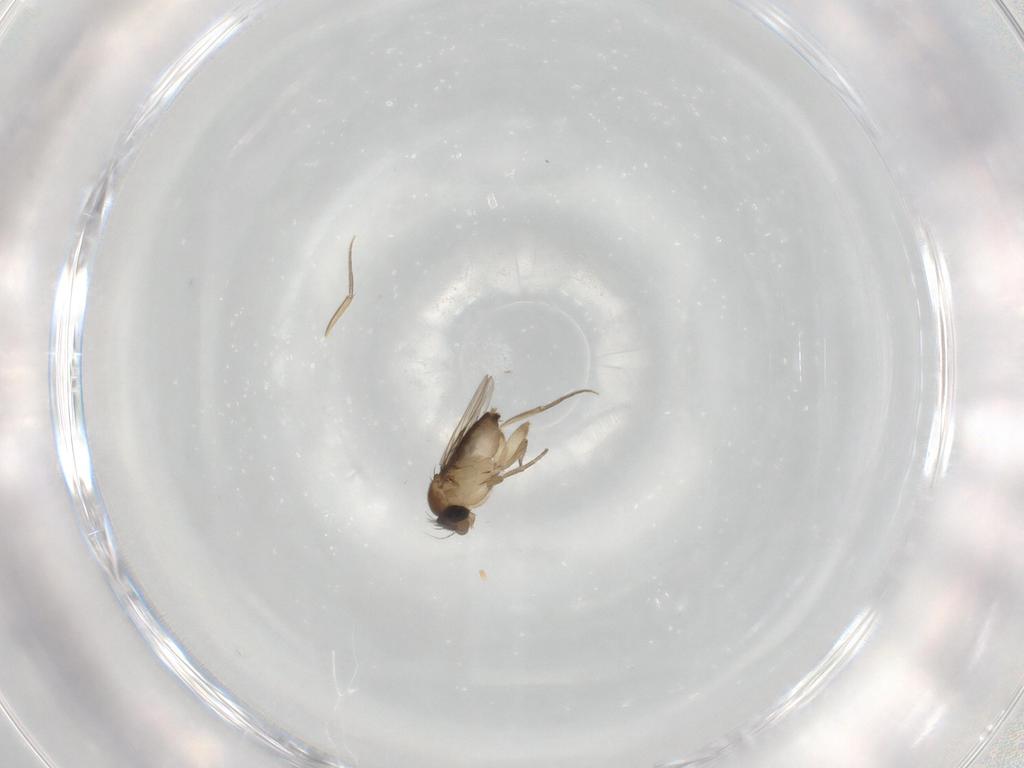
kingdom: Animalia
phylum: Arthropoda
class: Insecta
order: Diptera
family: Phoridae
